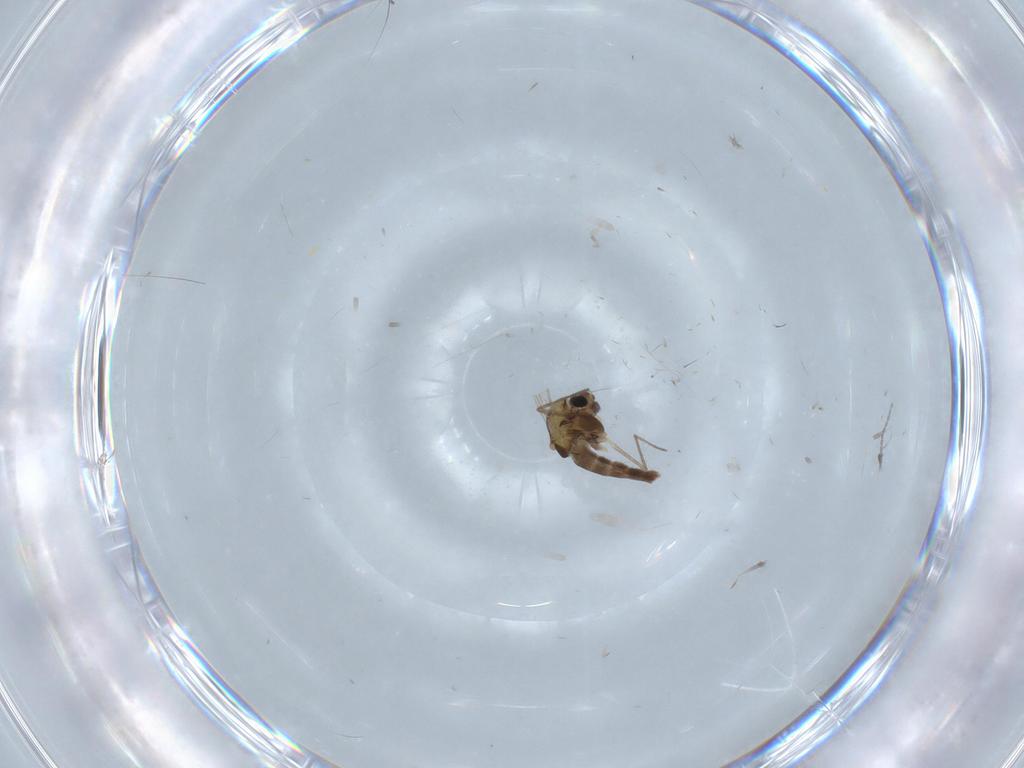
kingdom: Animalia
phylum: Arthropoda
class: Insecta
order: Diptera
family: Chironomidae
